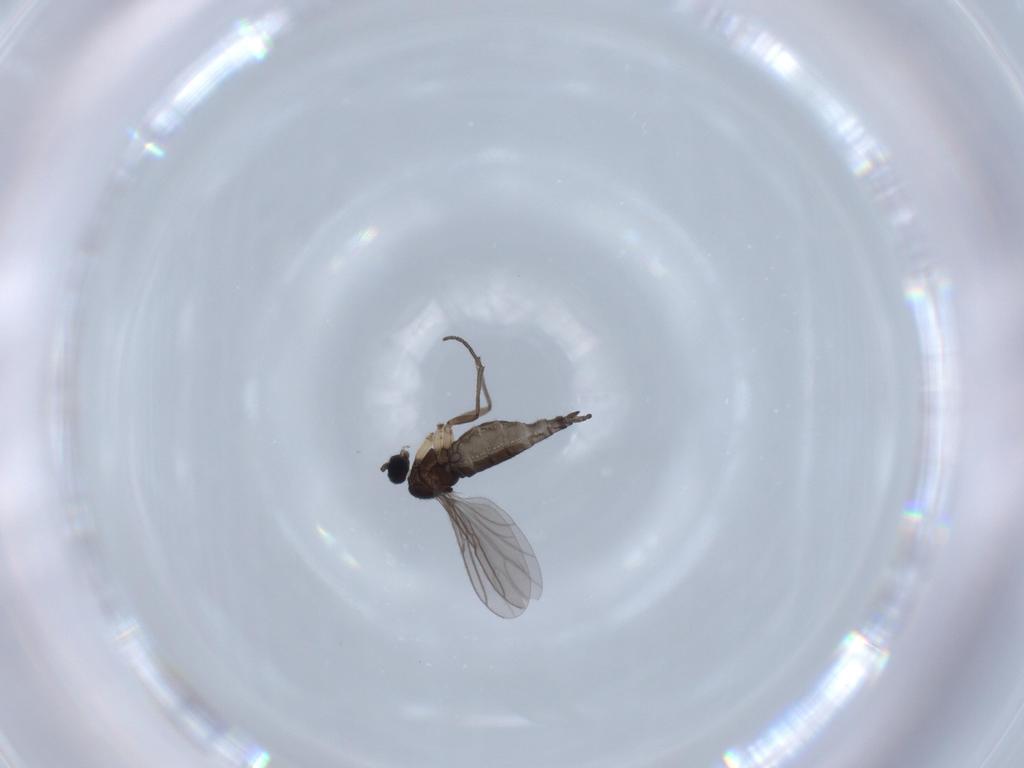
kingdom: Animalia
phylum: Arthropoda
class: Insecta
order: Diptera
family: Sciaridae
